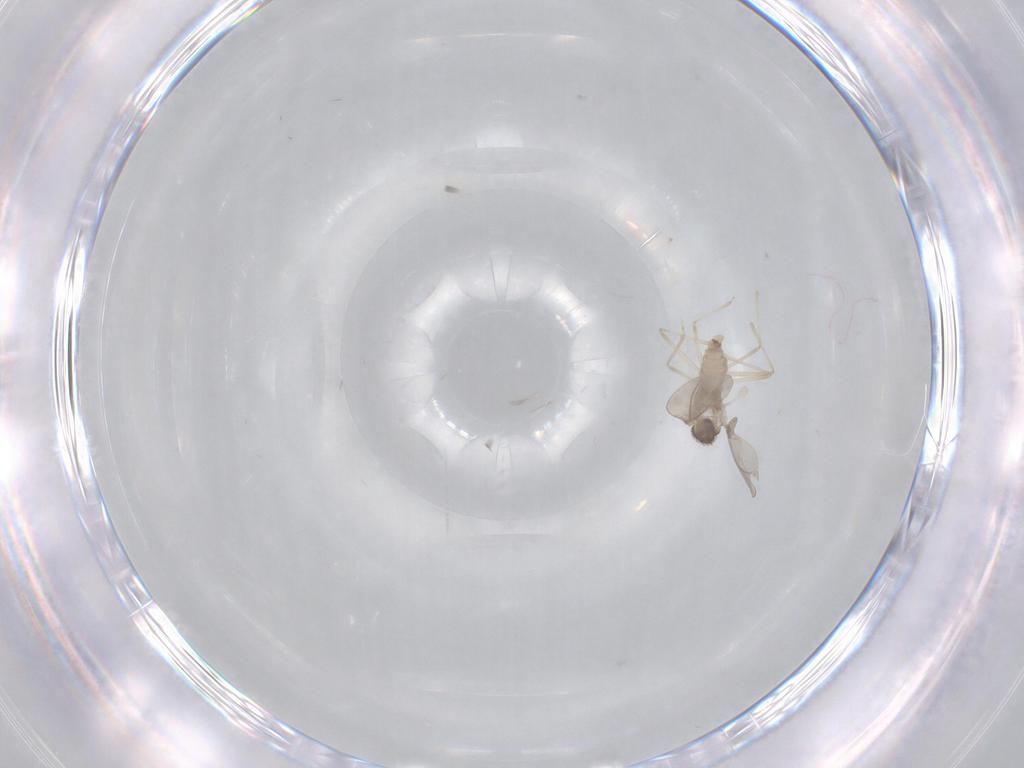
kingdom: Animalia
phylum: Arthropoda
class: Insecta
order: Diptera
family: Cecidomyiidae
